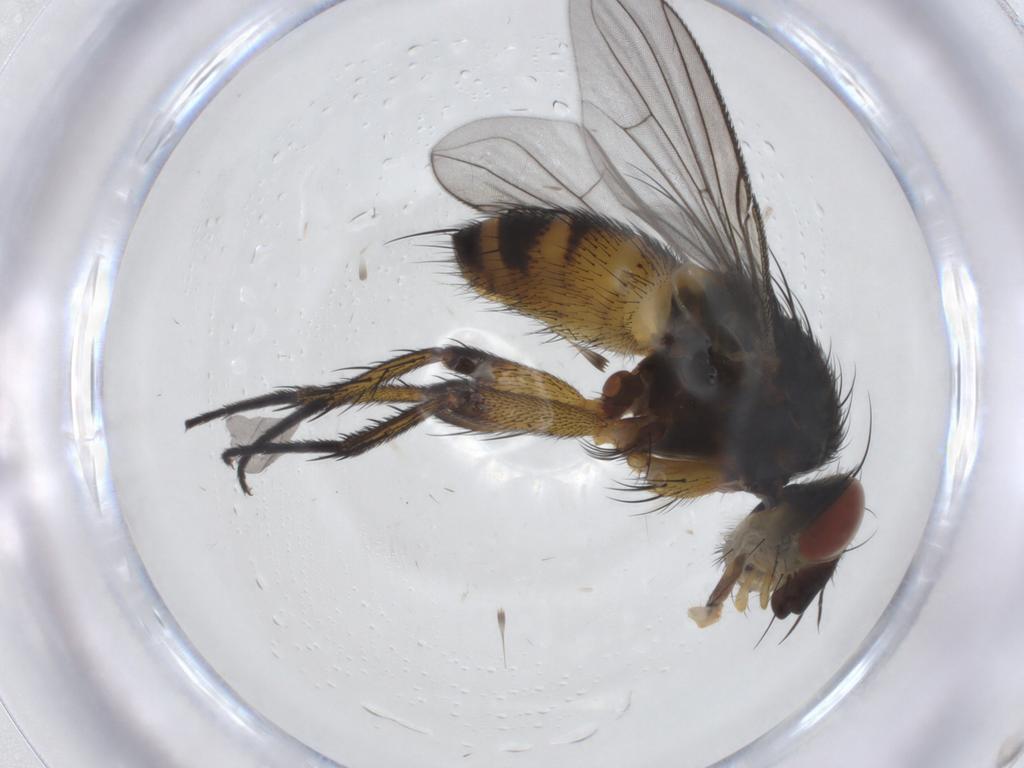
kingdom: Animalia
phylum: Arthropoda
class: Insecta
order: Diptera
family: Tachinidae
